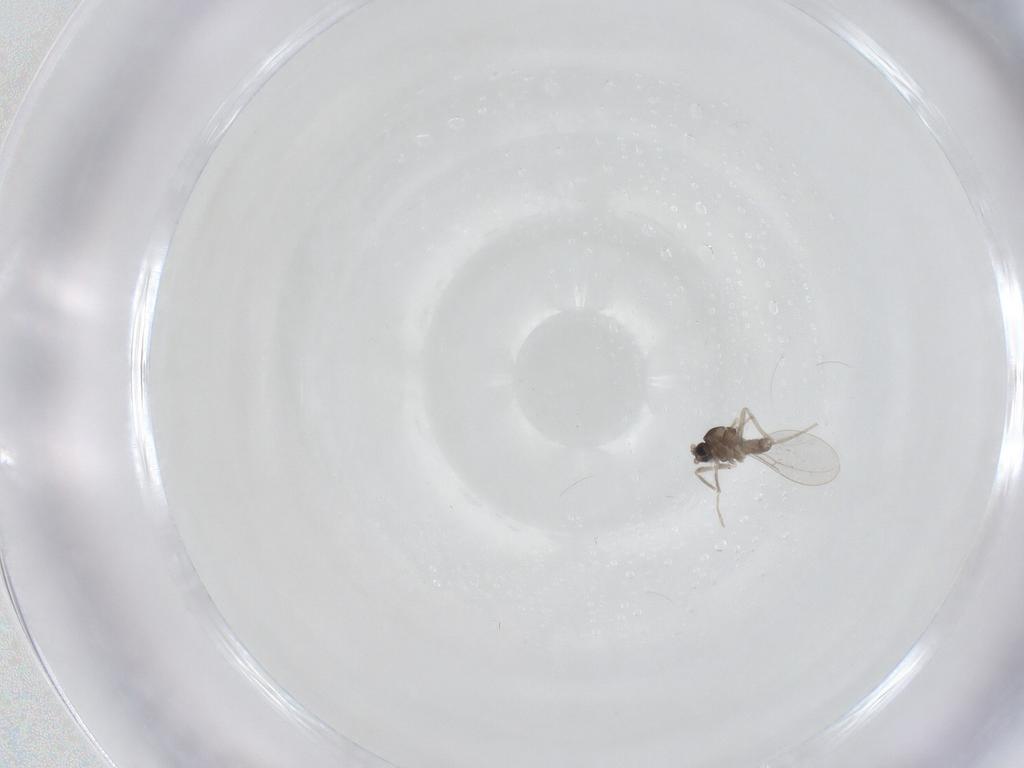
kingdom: Animalia
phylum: Arthropoda
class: Insecta
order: Diptera
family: Cecidomyiidae
